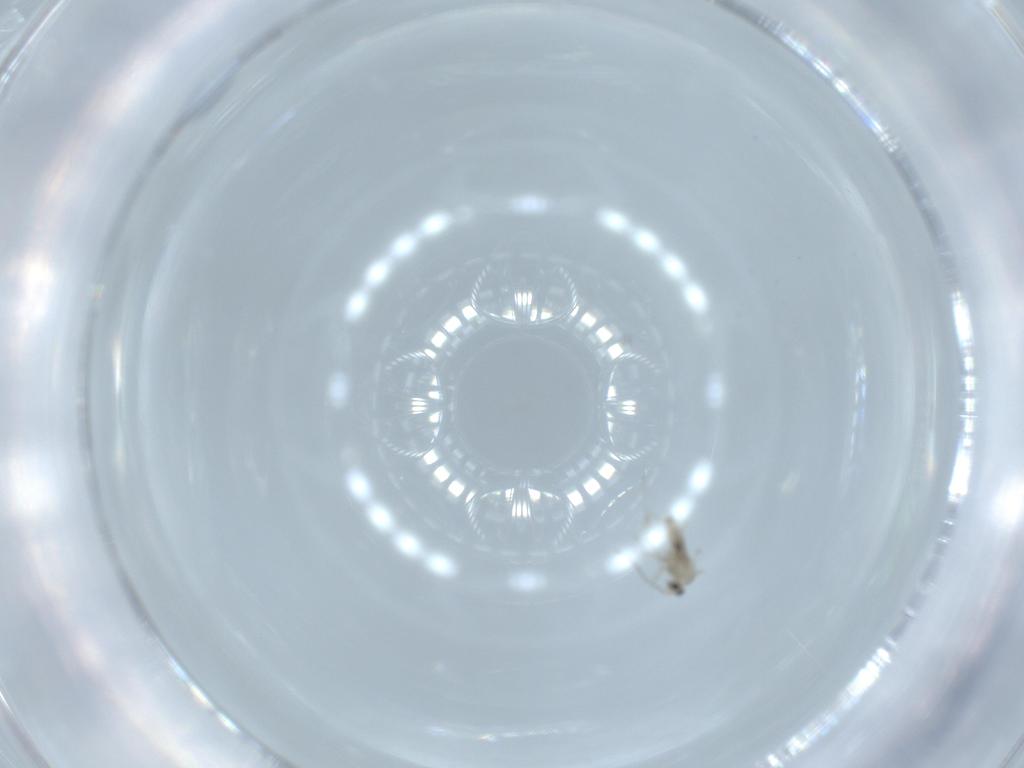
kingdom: Animalia
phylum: Arthropoda
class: Insecta
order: Diptera
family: Cecidomyiidae
